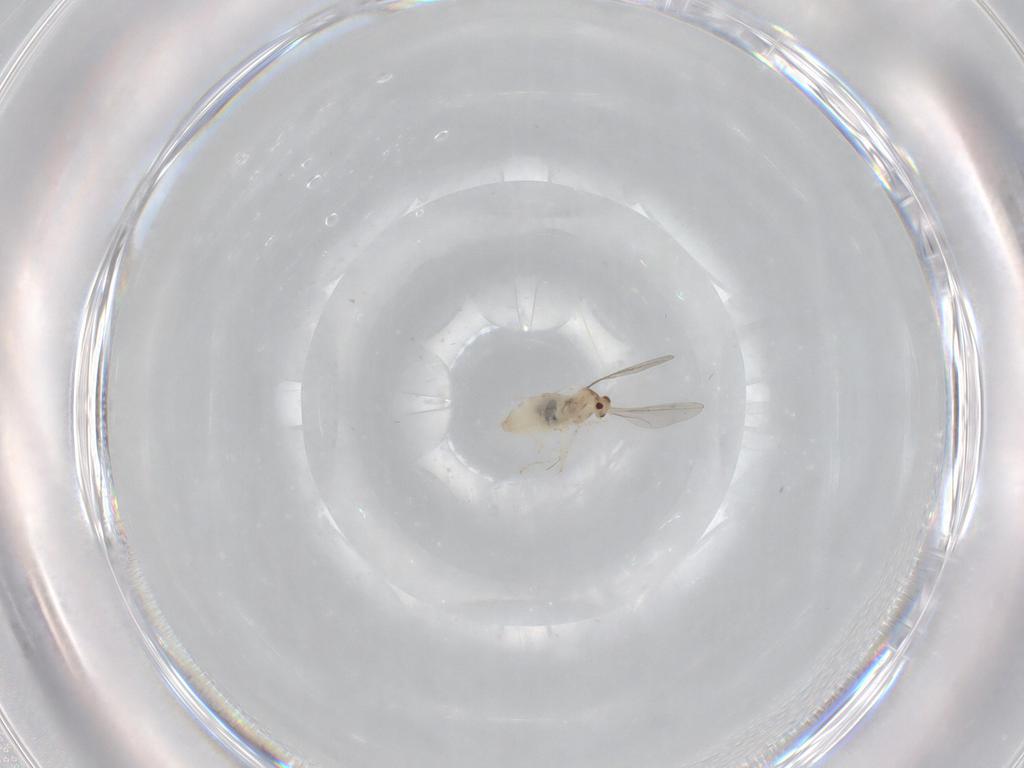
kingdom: Animalia
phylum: Arthropoda
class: Insecta
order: Diptera
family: Cecidomyiidae
